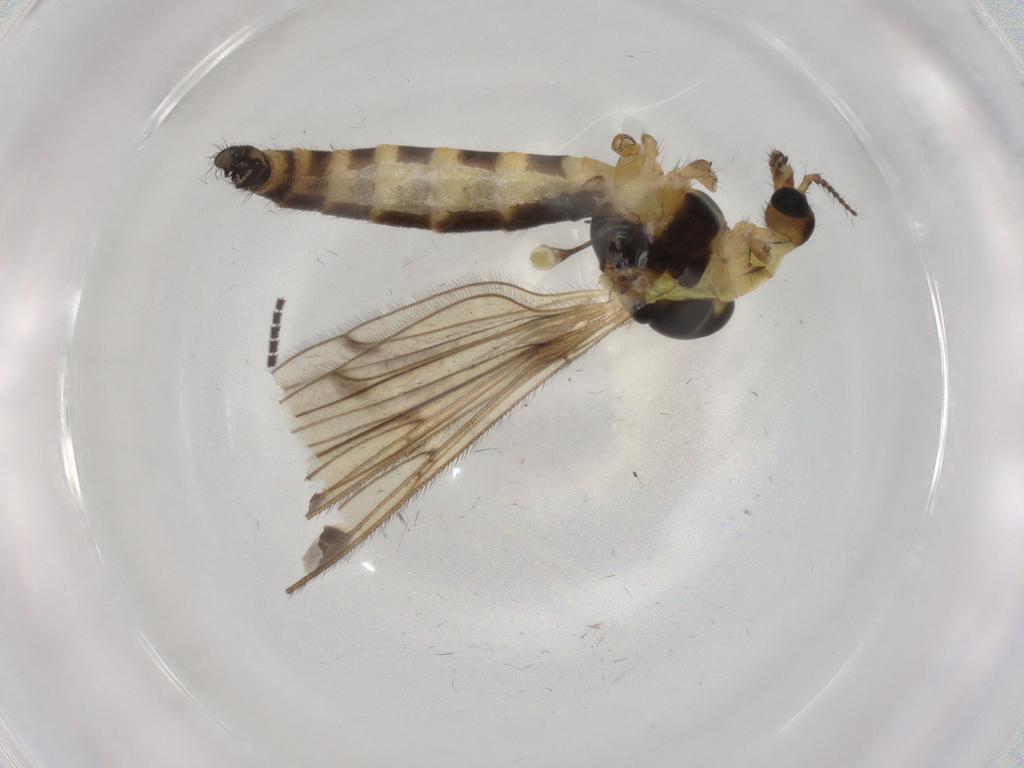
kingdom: Animalia
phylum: Arthropoda
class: Insecta
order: Diptera
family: Limoniidae
